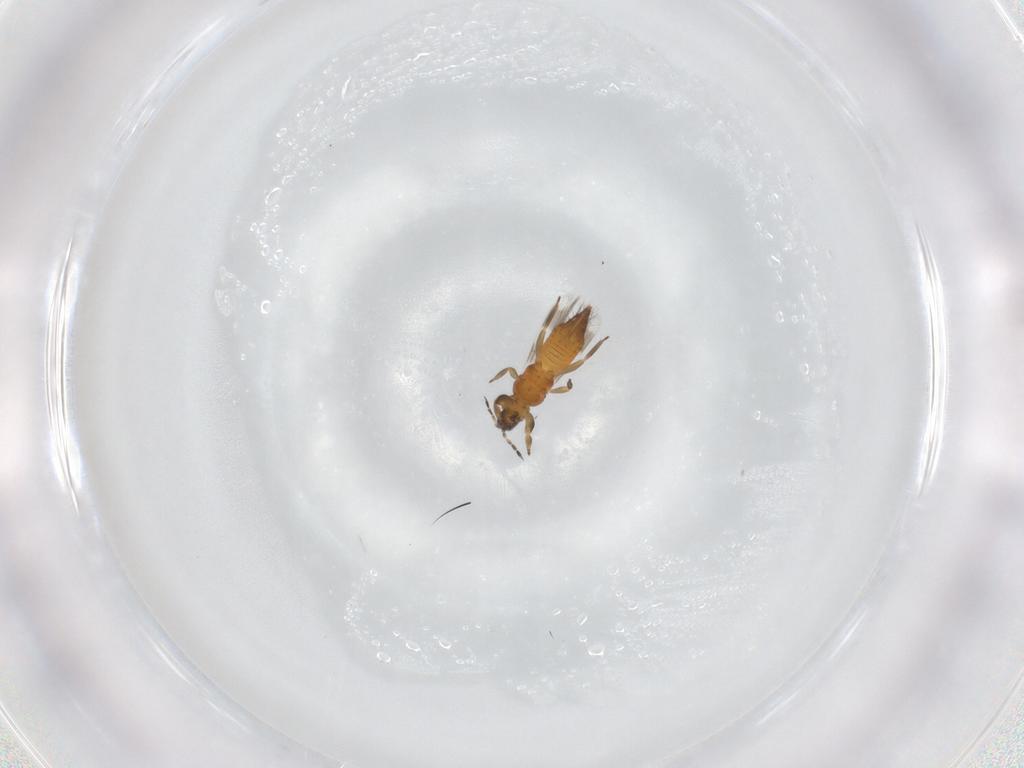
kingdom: Animalia
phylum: Arthropoda
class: Insecta
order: Thysanoptera
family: Aeolothripidae
